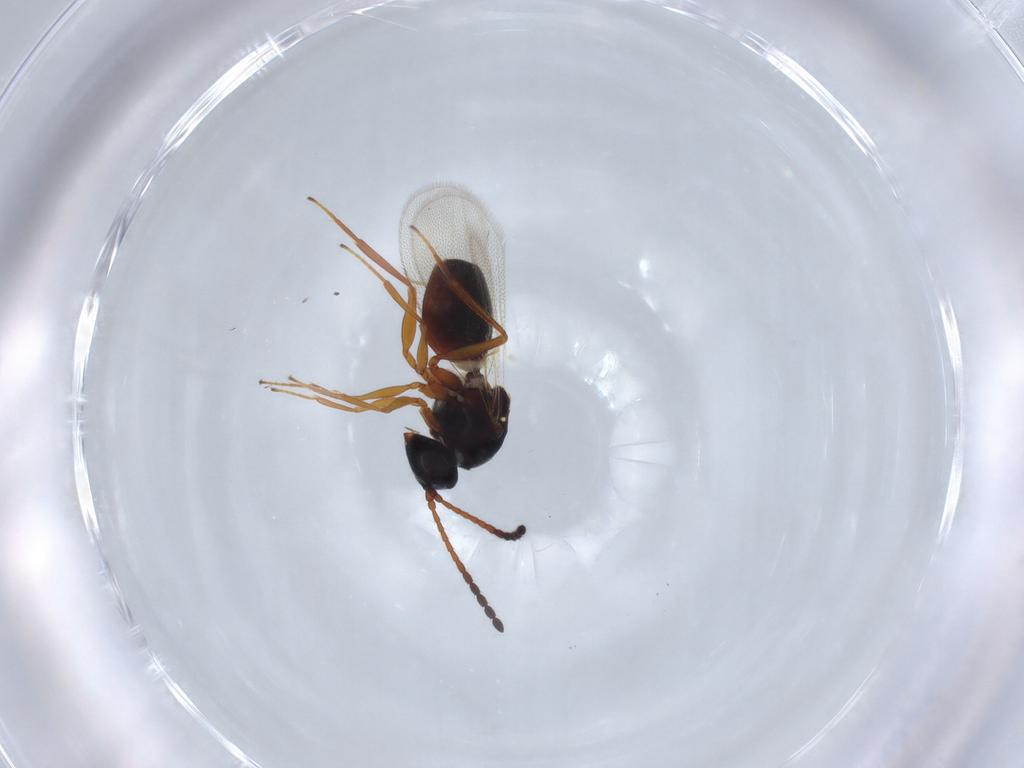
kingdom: Animalia
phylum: Arthropoda
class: Insecta
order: Hymenoptera
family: Figitidae
